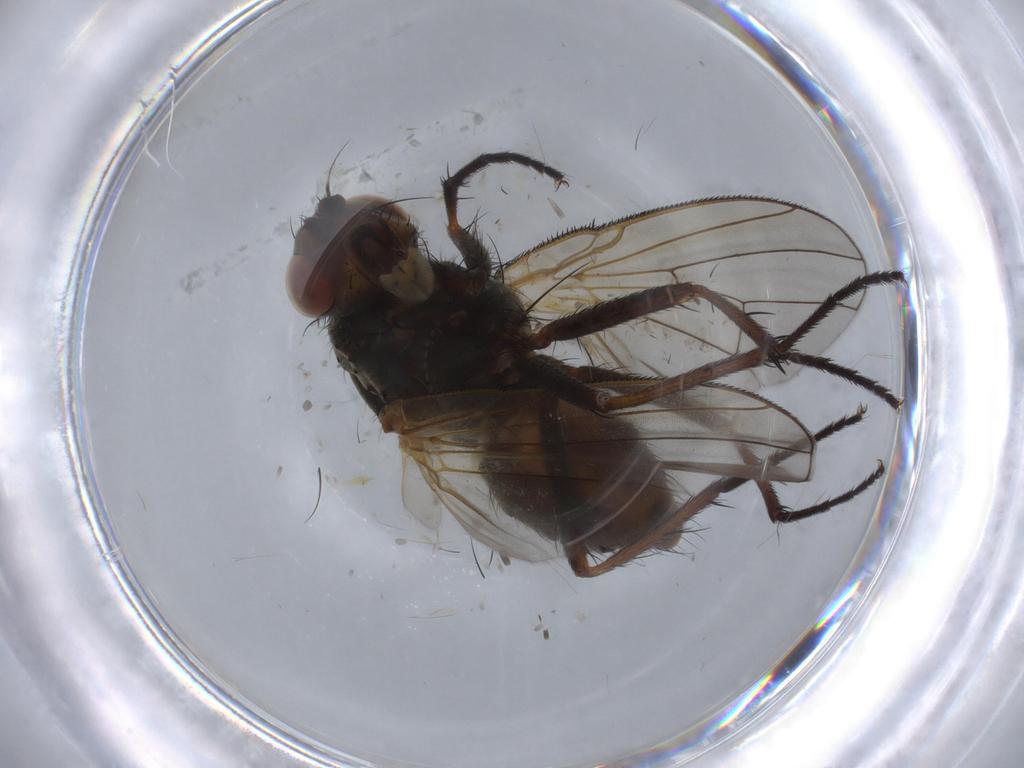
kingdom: Animalia
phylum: Arthropoda
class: Insecta
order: Diptera
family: Anthomyiidae
